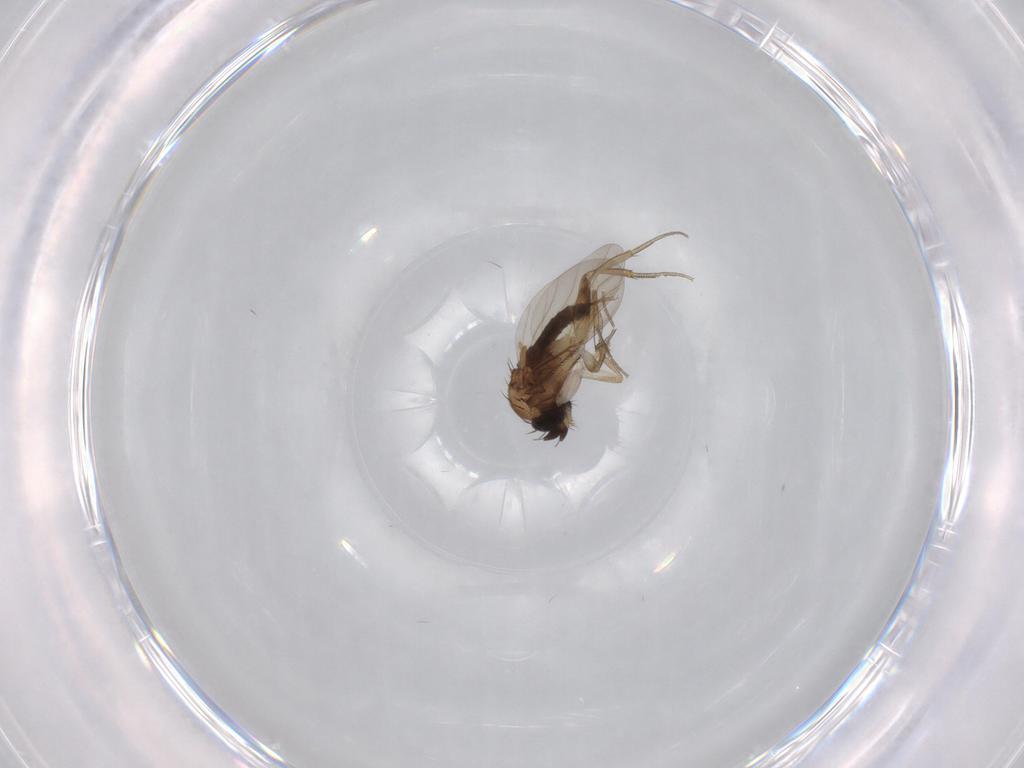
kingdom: Animalia
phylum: Arthropoda
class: Insecta
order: Diptera
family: Phoridae
